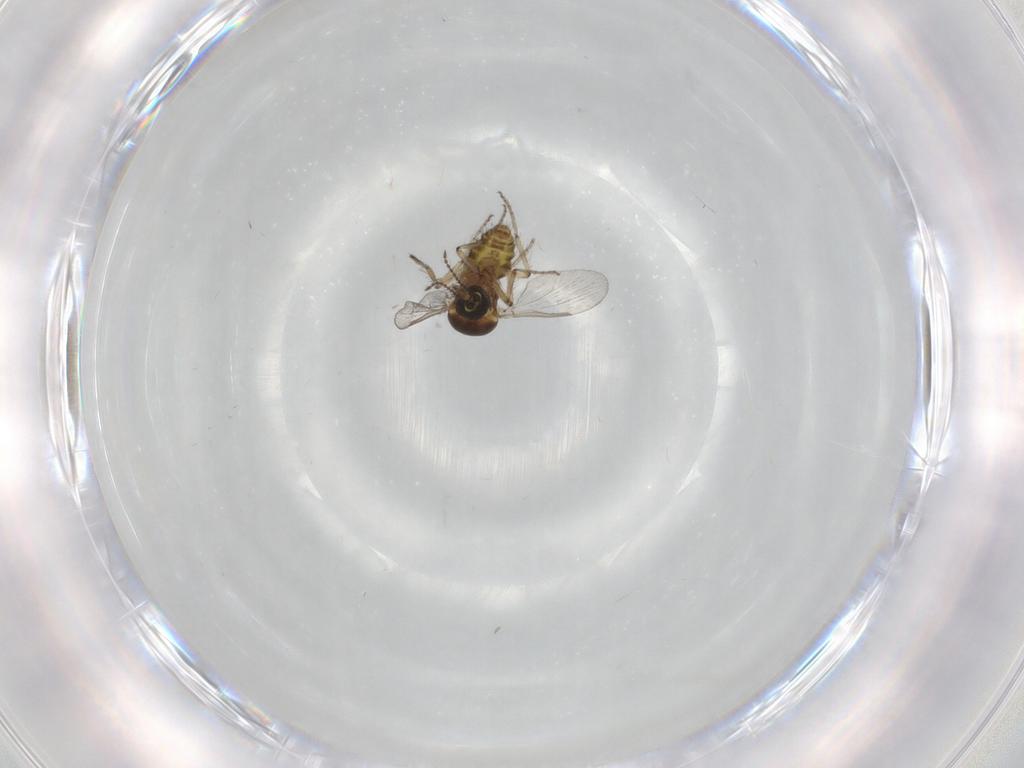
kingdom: Animalia
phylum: Arthropoda
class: Insecta
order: Diptera
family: Ceratopogonidae
